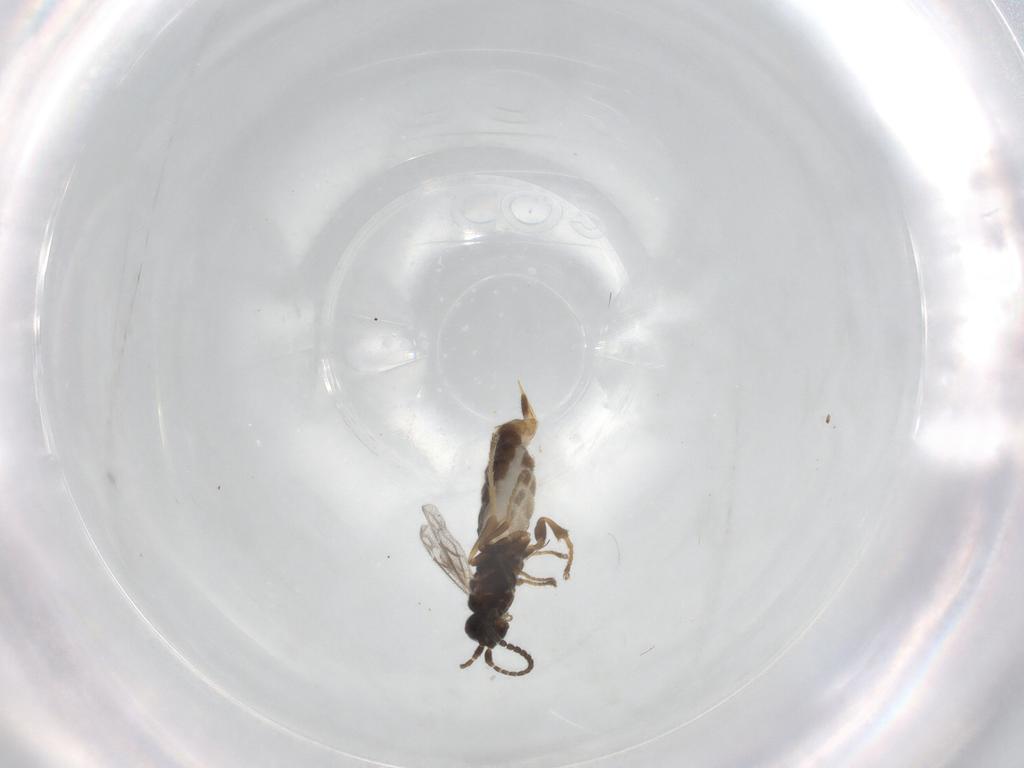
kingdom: Animalia
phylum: Arthropoda
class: Insecta
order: Hymenoptera
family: Ichneumonidae
